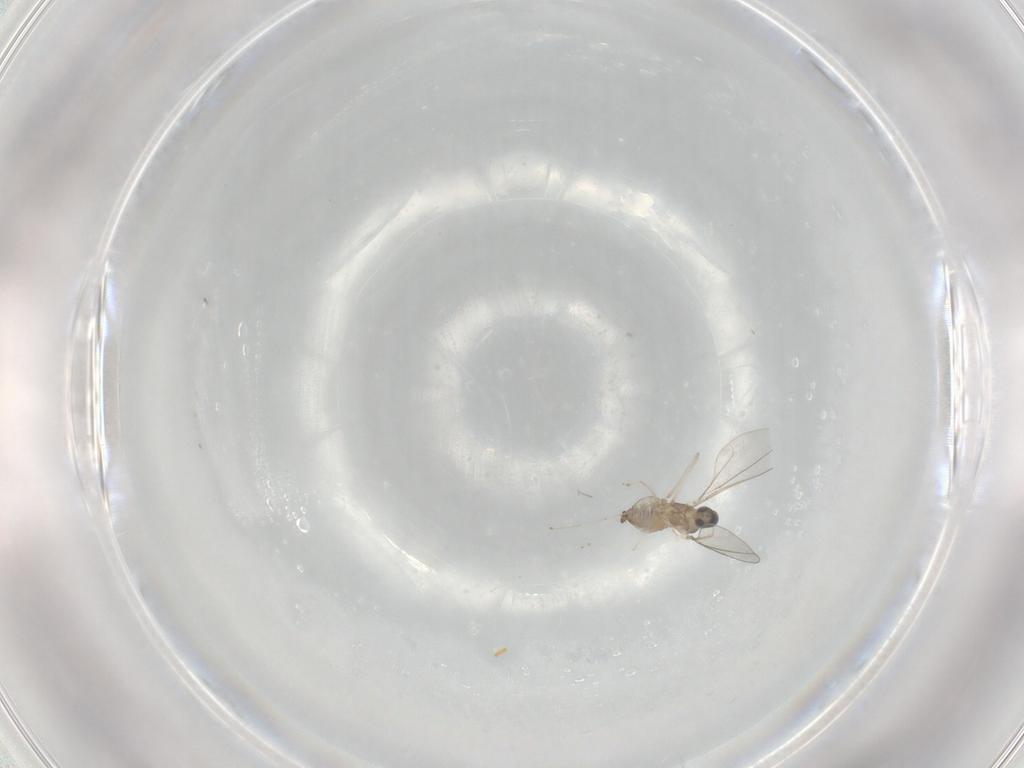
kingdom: Animalia
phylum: Arthropoda
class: Insecta
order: Diptera
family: Cecidomyiidae
